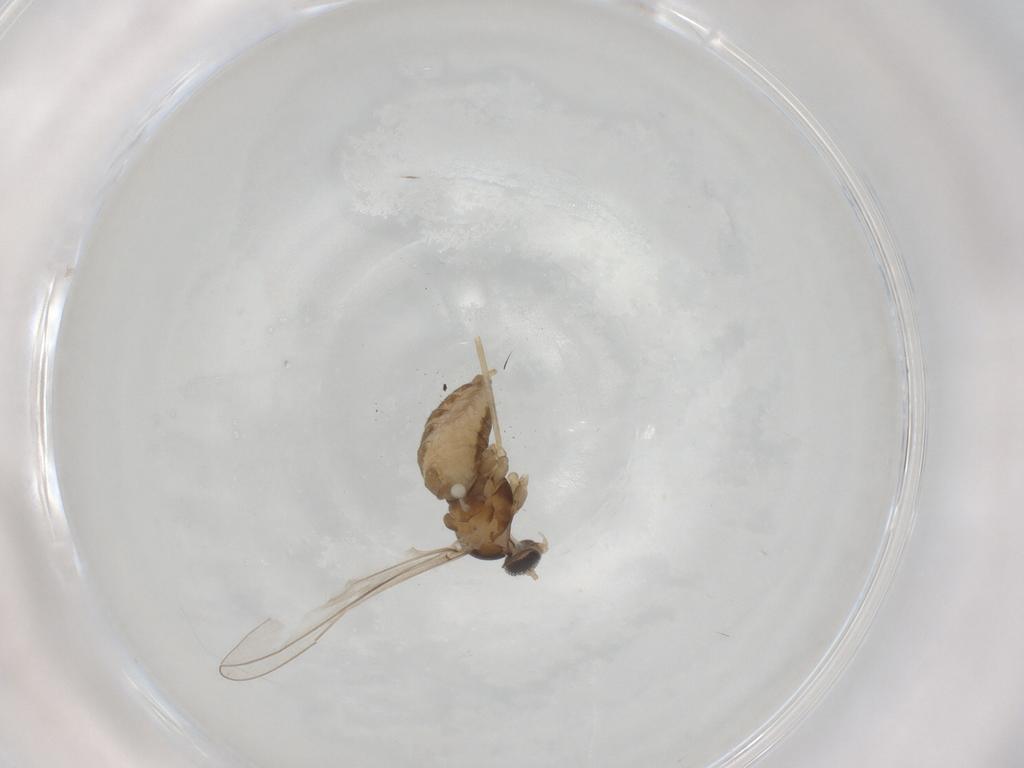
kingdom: Animalia
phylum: Arthropoda
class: Insecta
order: Diptera
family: Cecidomyiidae
